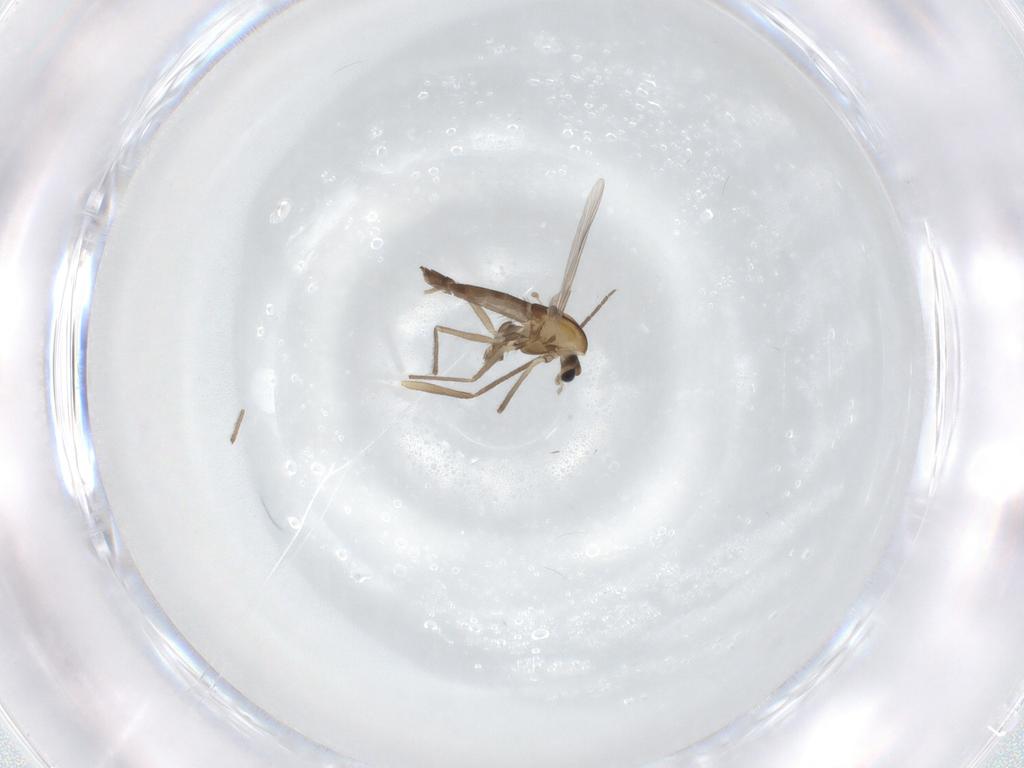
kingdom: Animalia
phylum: Arthropoda
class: Insecta
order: Diptera
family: Chironomidae
